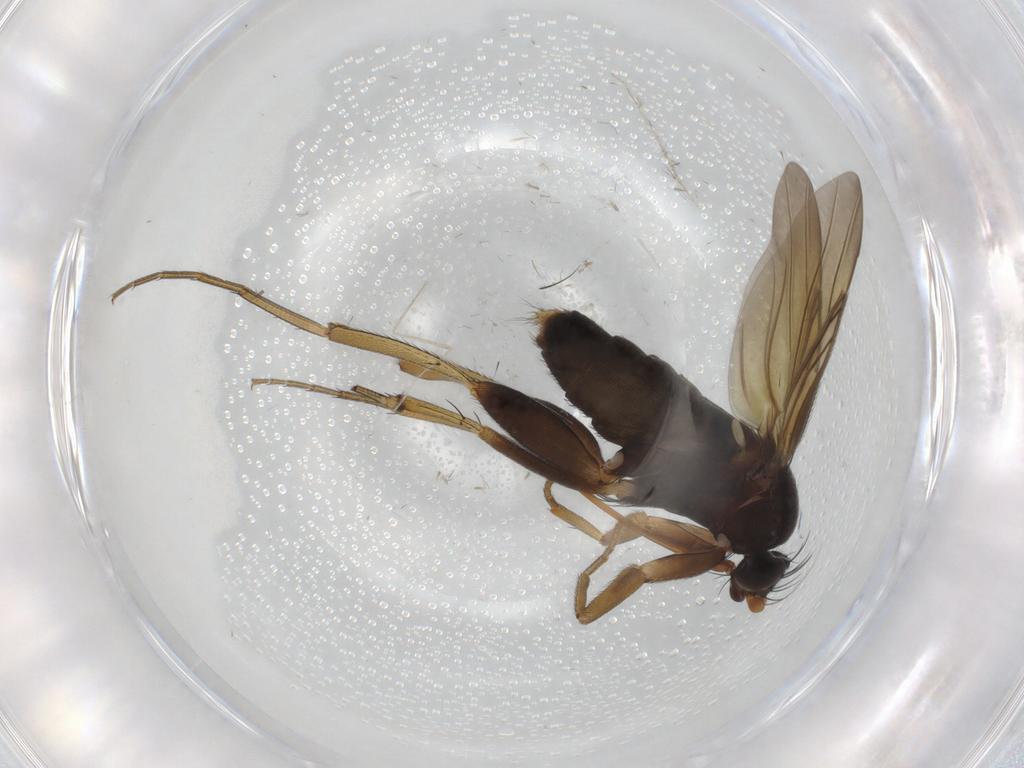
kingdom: Animalia
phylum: Arthropoda
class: Insecta
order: Diptera
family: Phoridae
